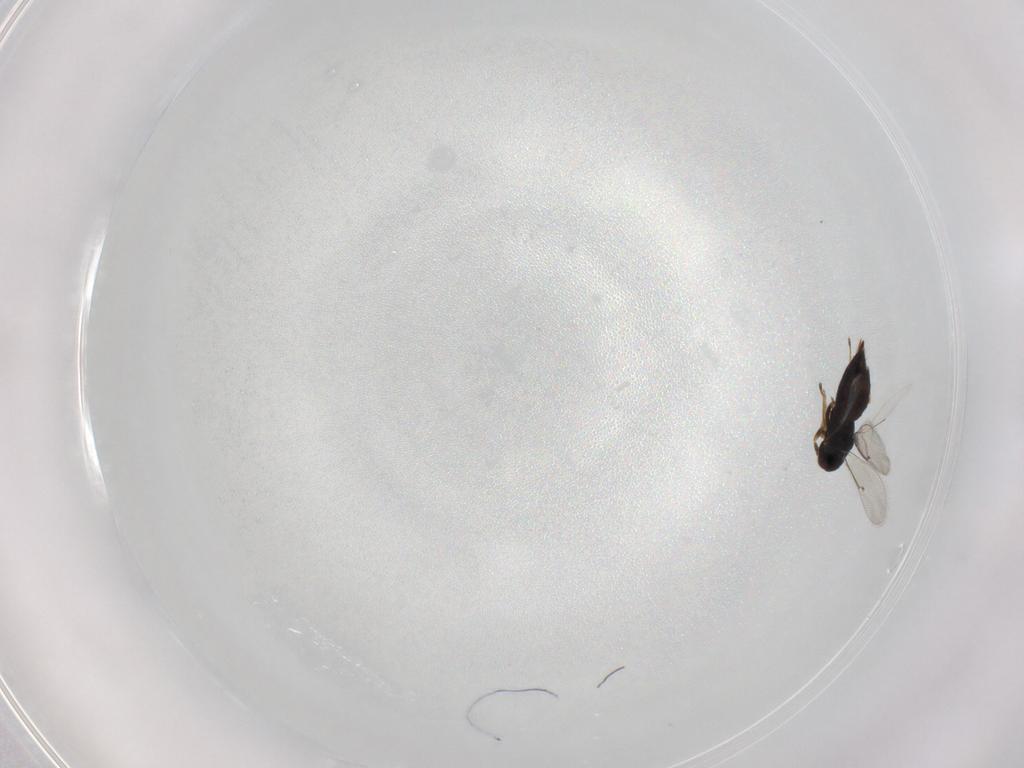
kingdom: Animalia
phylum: Arthropoda
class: Insecta
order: Hymenoptera
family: Eulophidae
